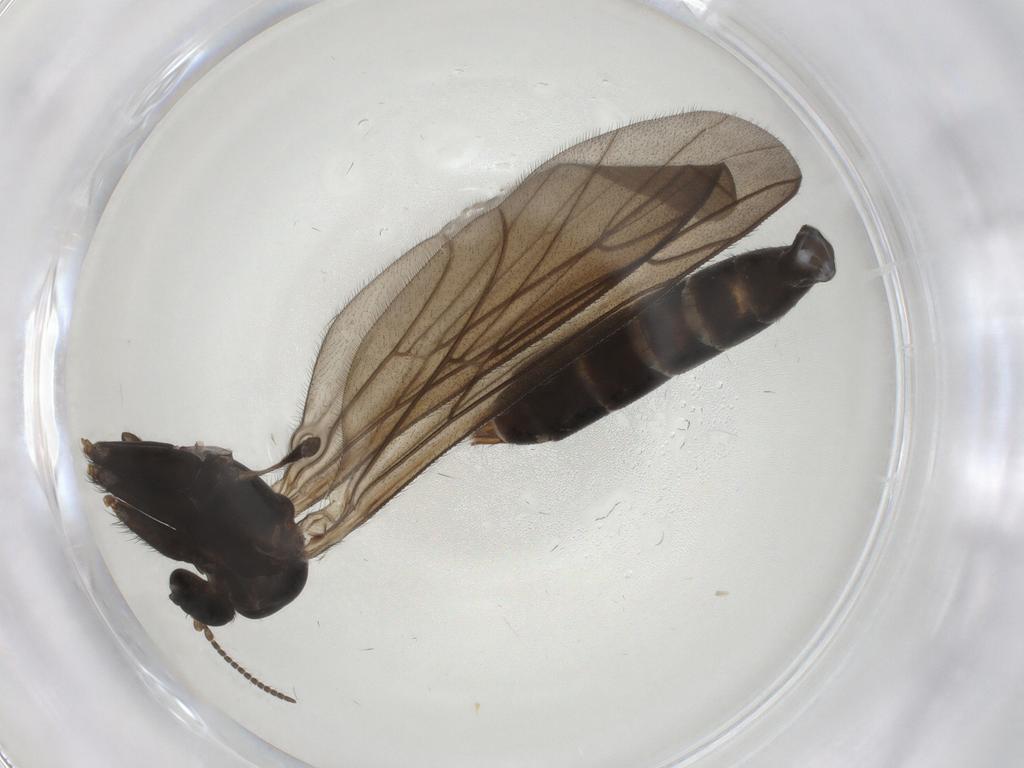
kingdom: Animalia
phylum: Arthropoda
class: Insecta
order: Diptera
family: Ditomyiidae
